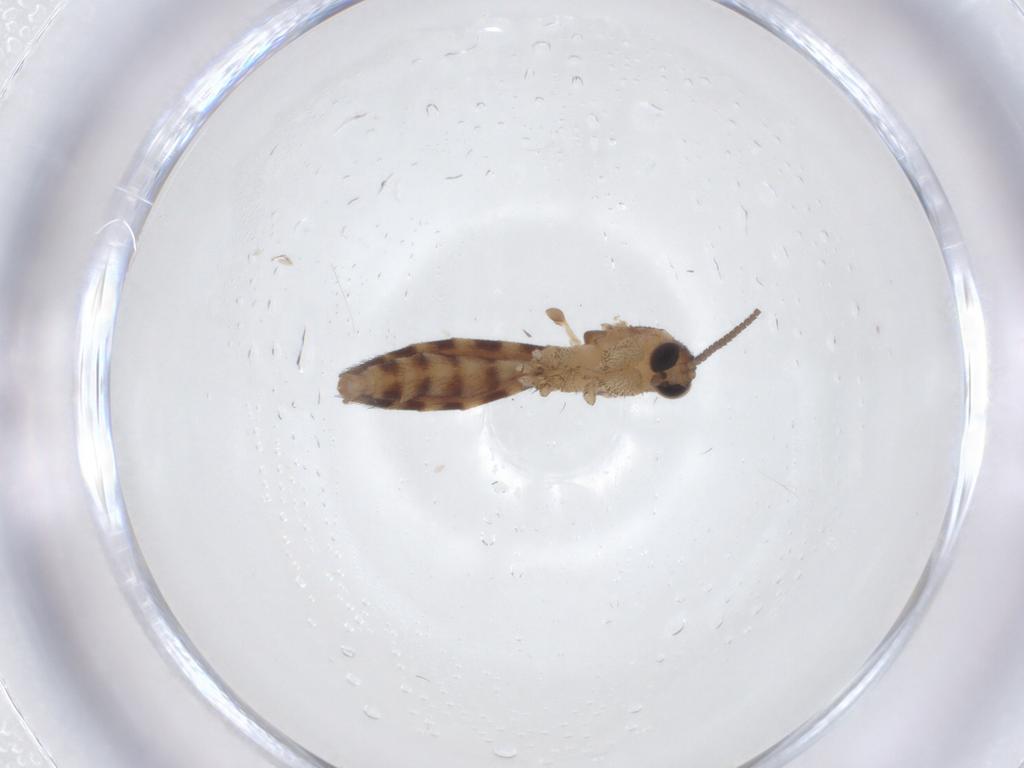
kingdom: Animalia
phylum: Arthropoda
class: Insecta
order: Diptera
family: Keroplatidae
